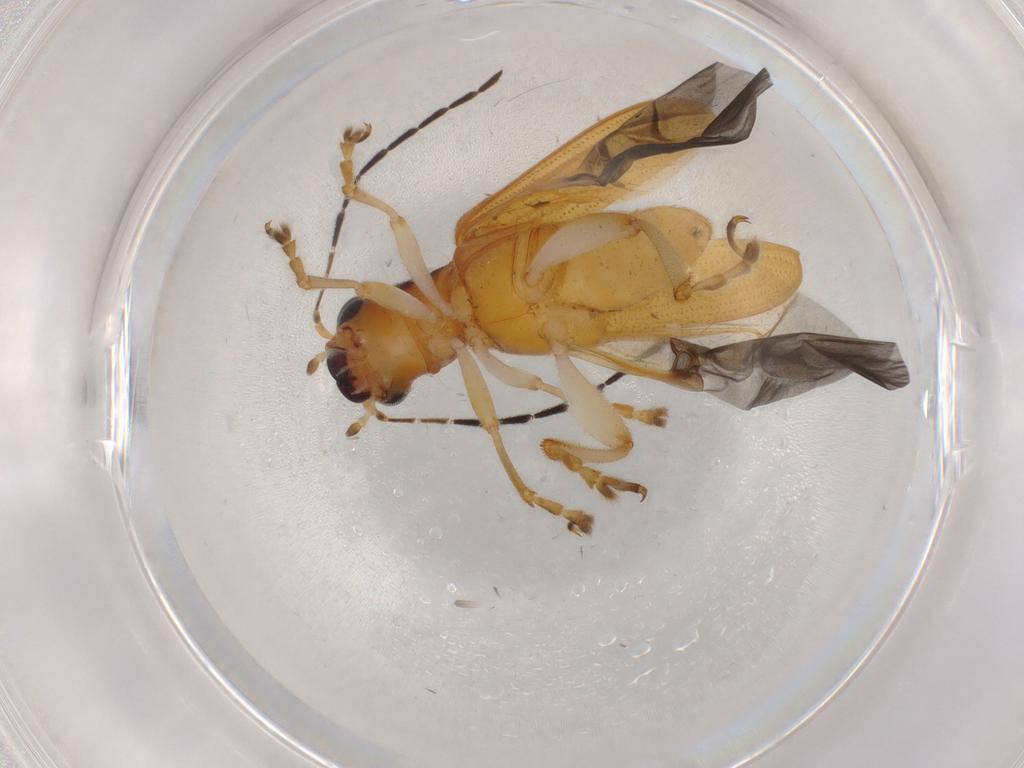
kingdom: Animalia
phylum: Arthropoda
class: Insecta
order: Coleoptera
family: Chrysomelidae
